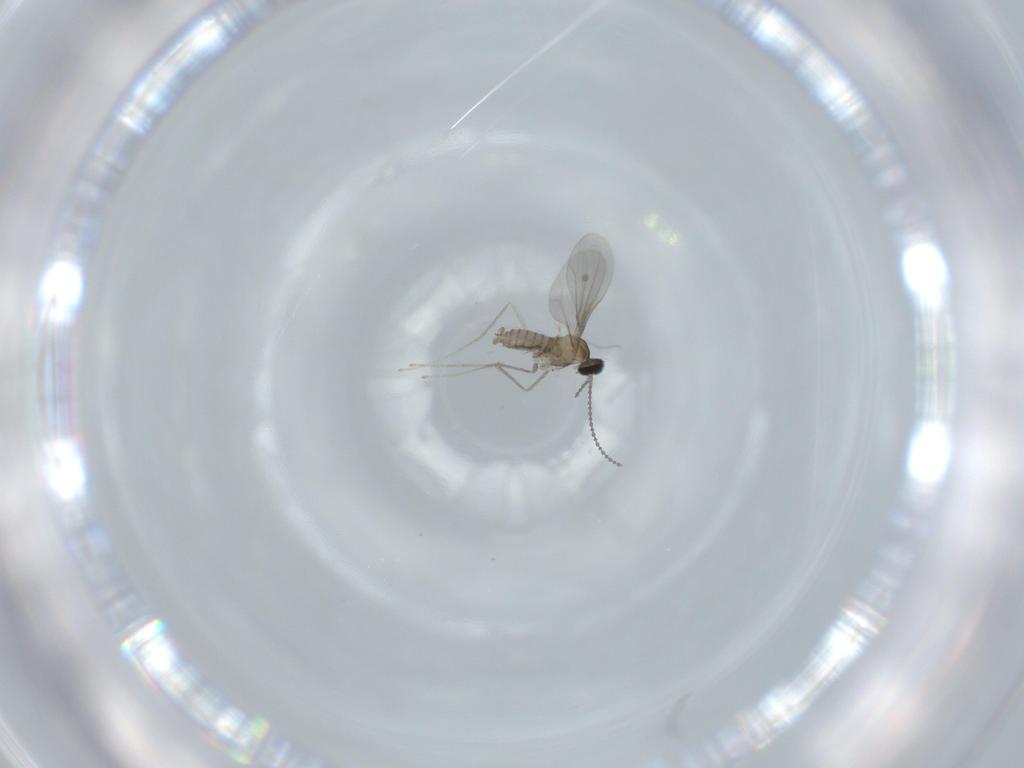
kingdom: Animalia
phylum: Arthropoda
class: Insecta
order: Diptera
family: Cecidomyiidae
